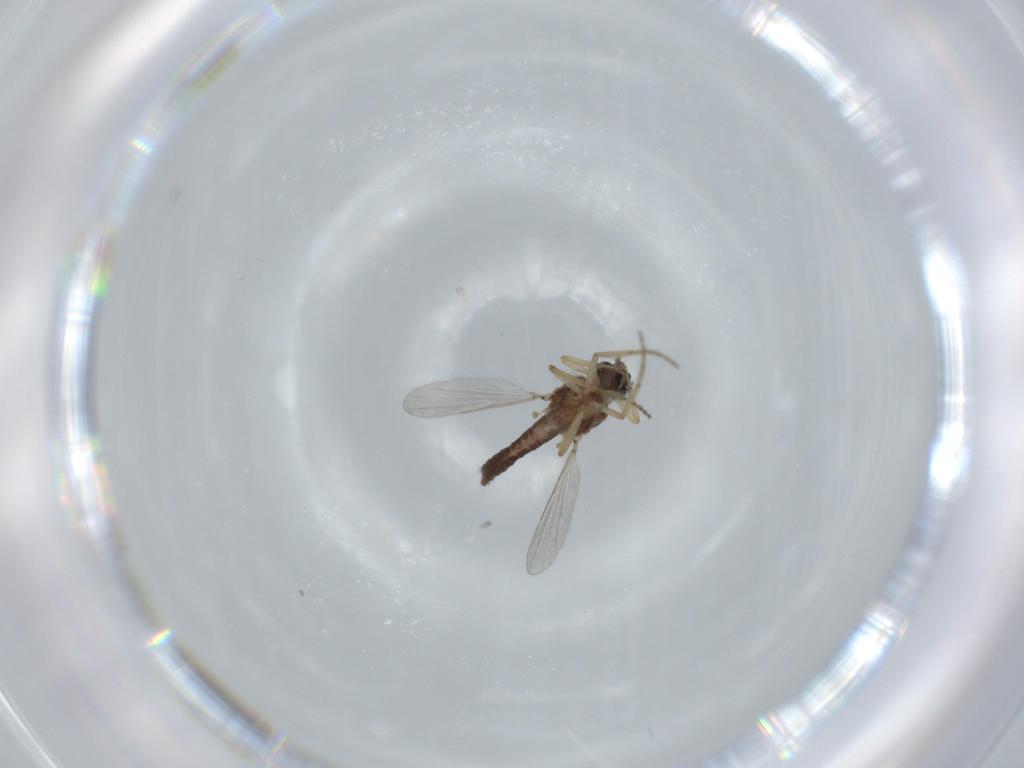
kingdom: Animalia
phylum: Arthropoda
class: Insecta
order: Diptera
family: Ceratopogonidae
